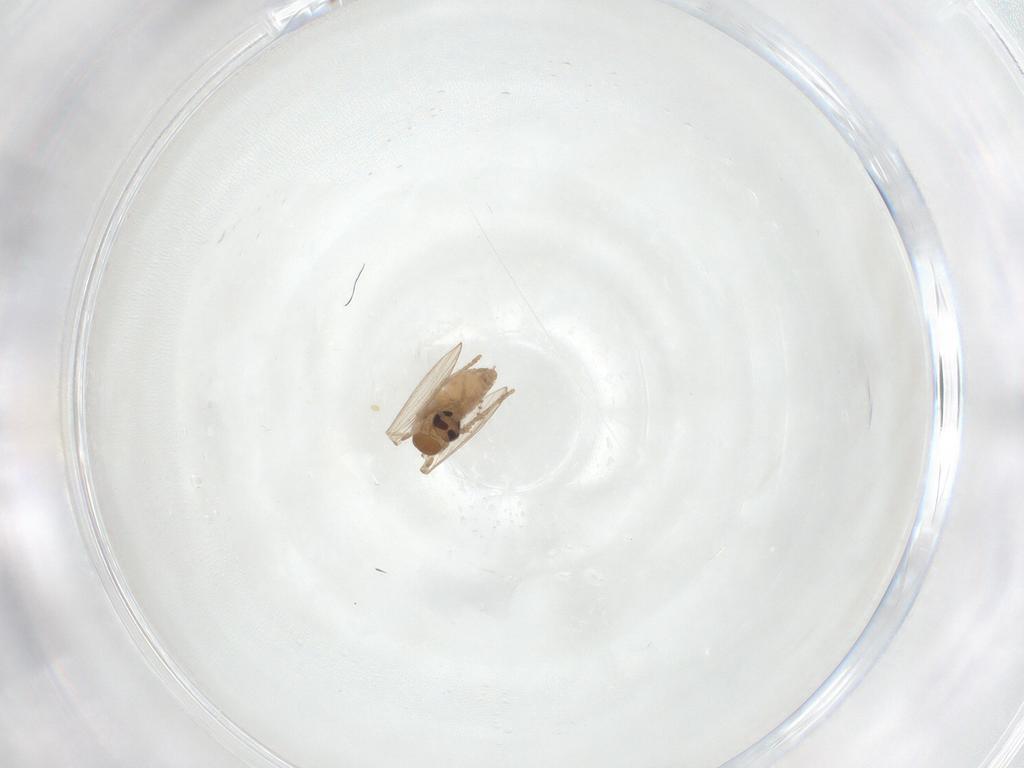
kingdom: Animalia
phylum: Arthropoda
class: Insecta
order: Diptera
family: Psychodidae
